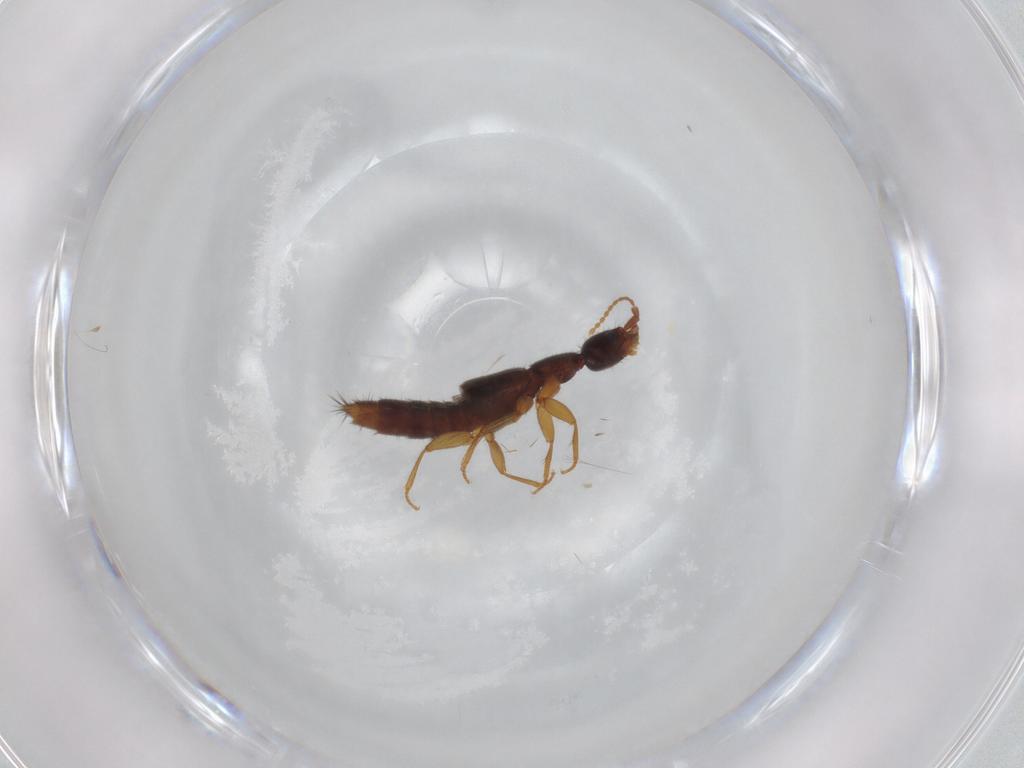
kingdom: Animalia
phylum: Arthropoda
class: Insecta
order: Coleoptera
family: Staphylinidae
